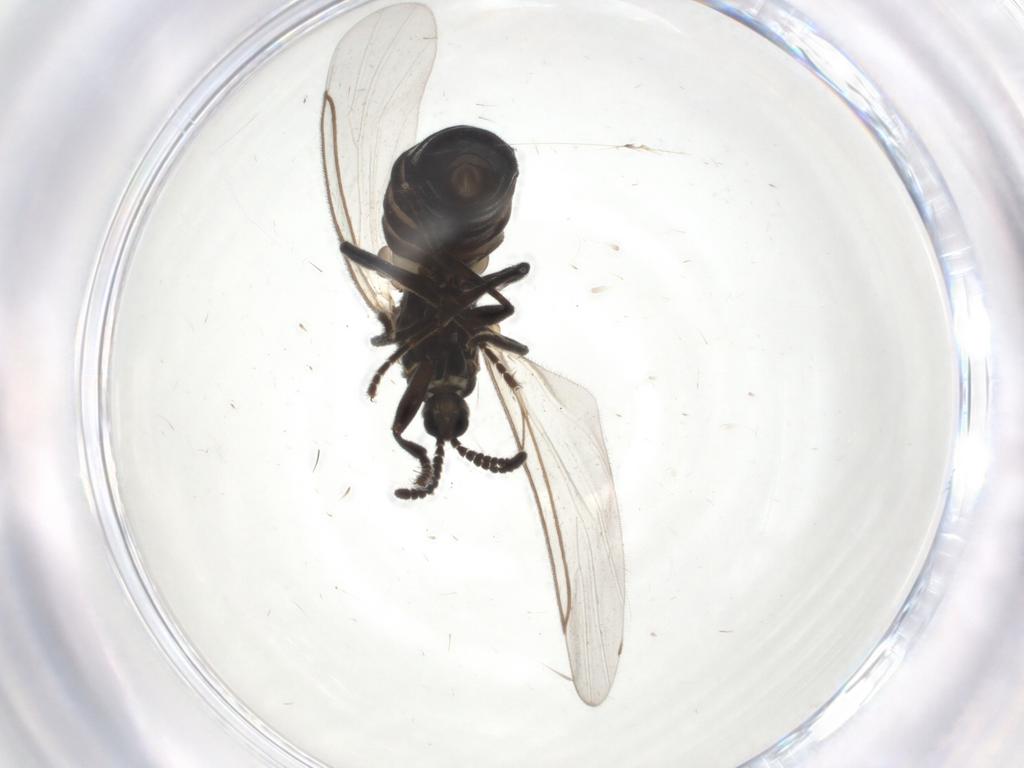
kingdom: Animalia
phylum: Arthropoda
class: Insecta
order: Diptera
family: Scatopsidae
